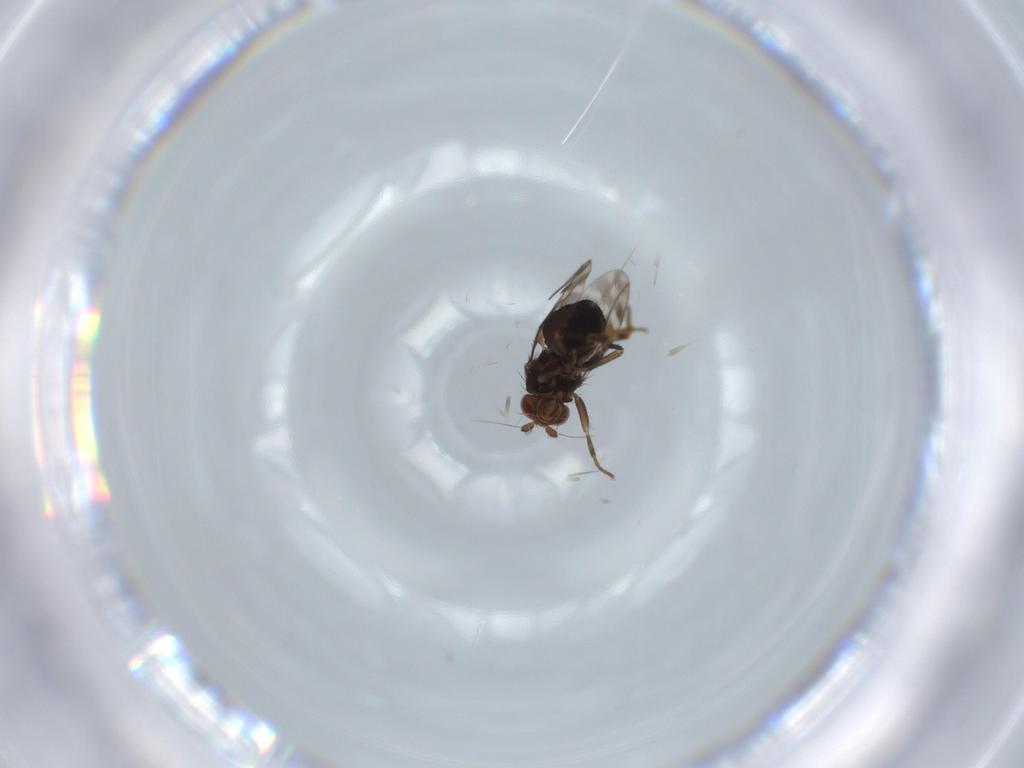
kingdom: Animalia
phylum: Arthropoda
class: Insecta
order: Diptera
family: Sphaeroceridae
